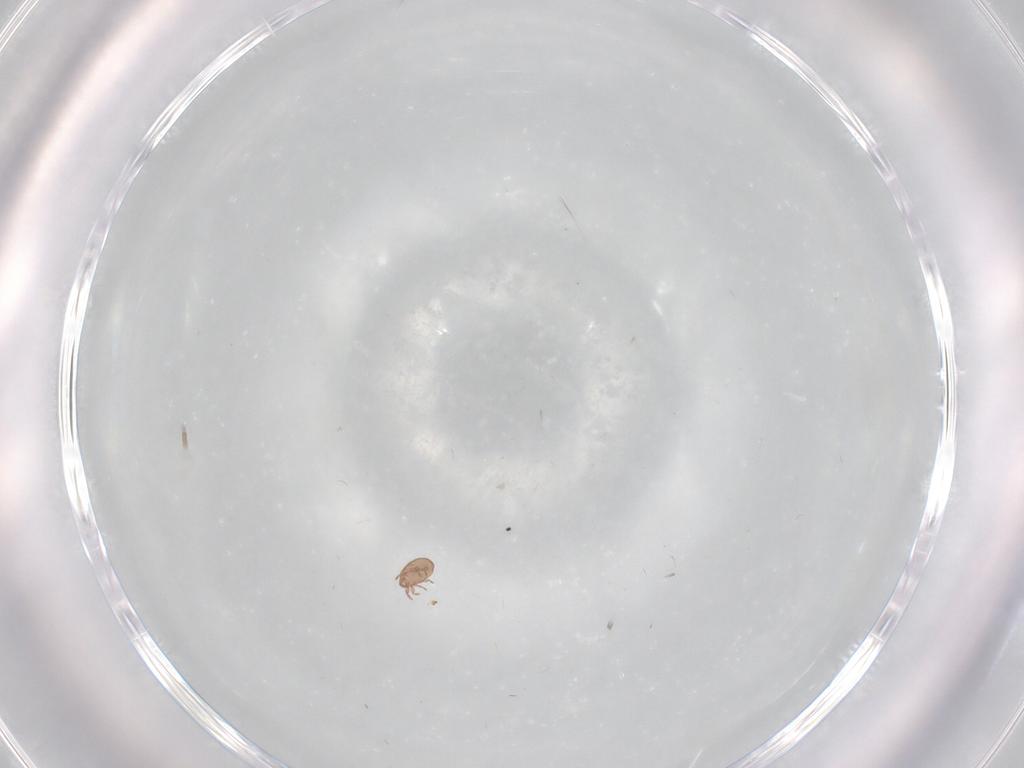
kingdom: Animalia
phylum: Arthropoda
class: Arachnida
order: Sarcoptiformes
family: Eremaeidae
